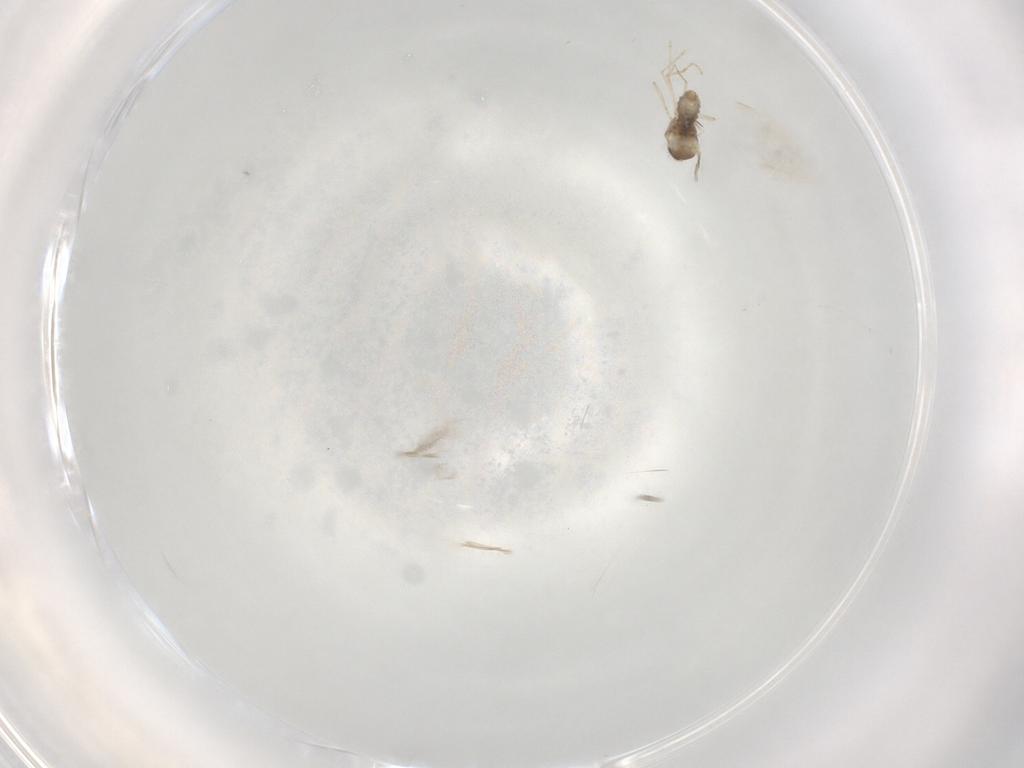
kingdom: Animalia
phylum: Arthropoda
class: Insecta
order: Diptera
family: Cecidomyiidae
